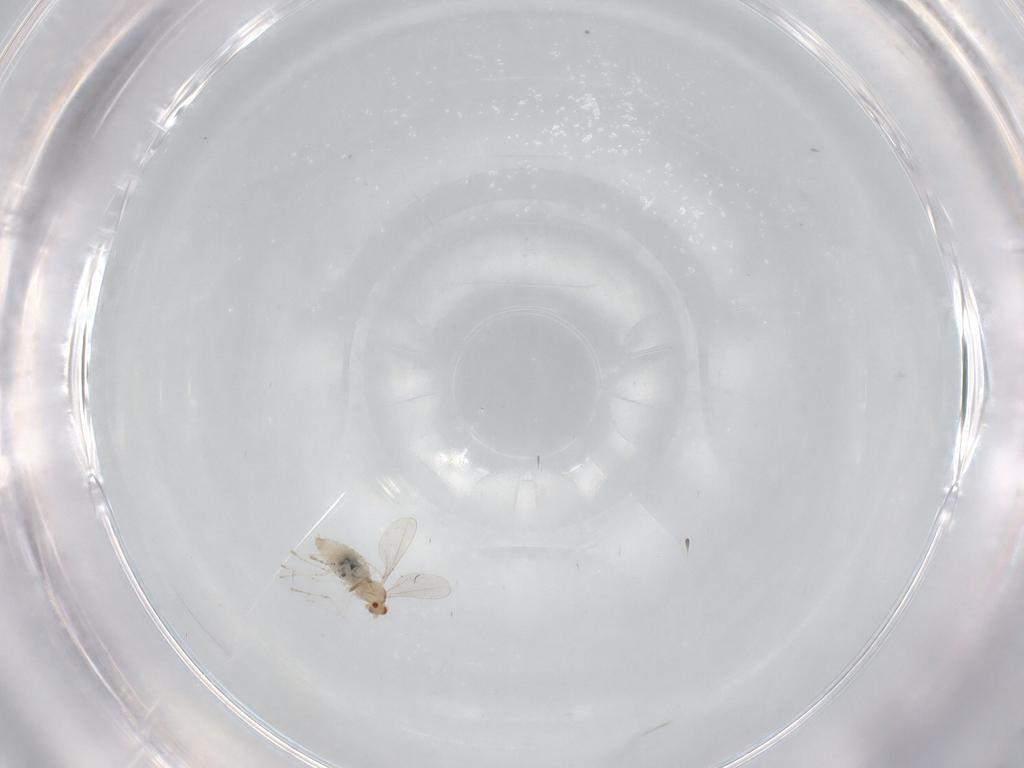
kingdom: Animalia
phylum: Arthropoda
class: Insecta
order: Diptera
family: Cecidomyiidae
